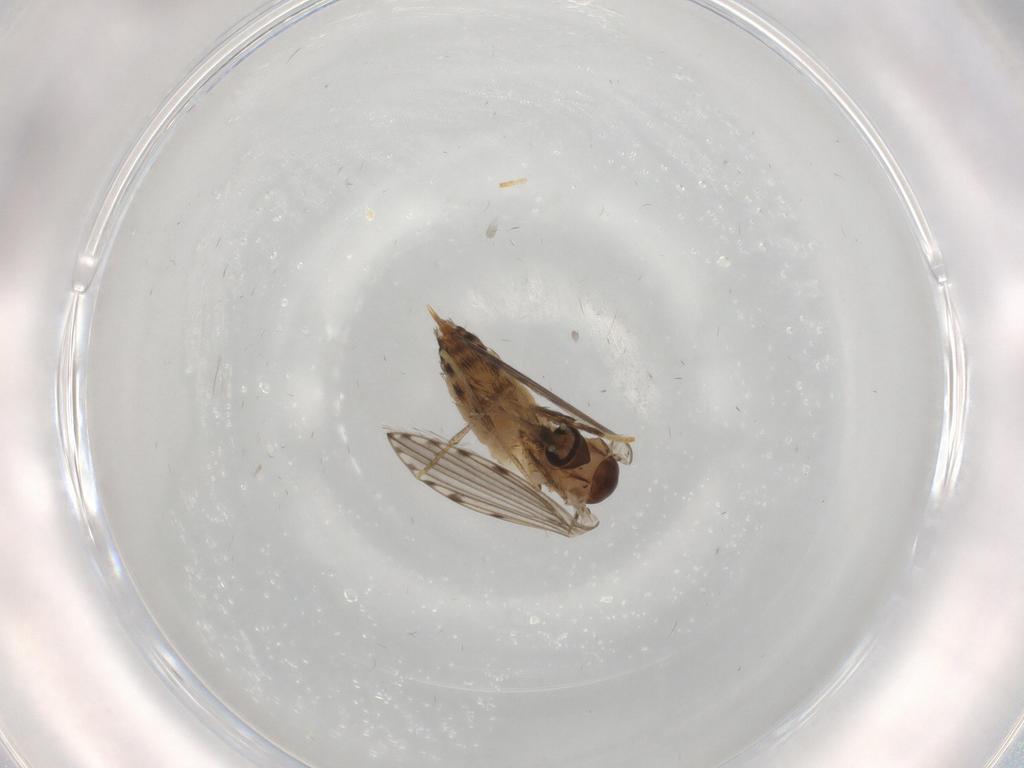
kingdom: Animalia
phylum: Arthropoda
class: Insecta
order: Diptera
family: Psychodidae
